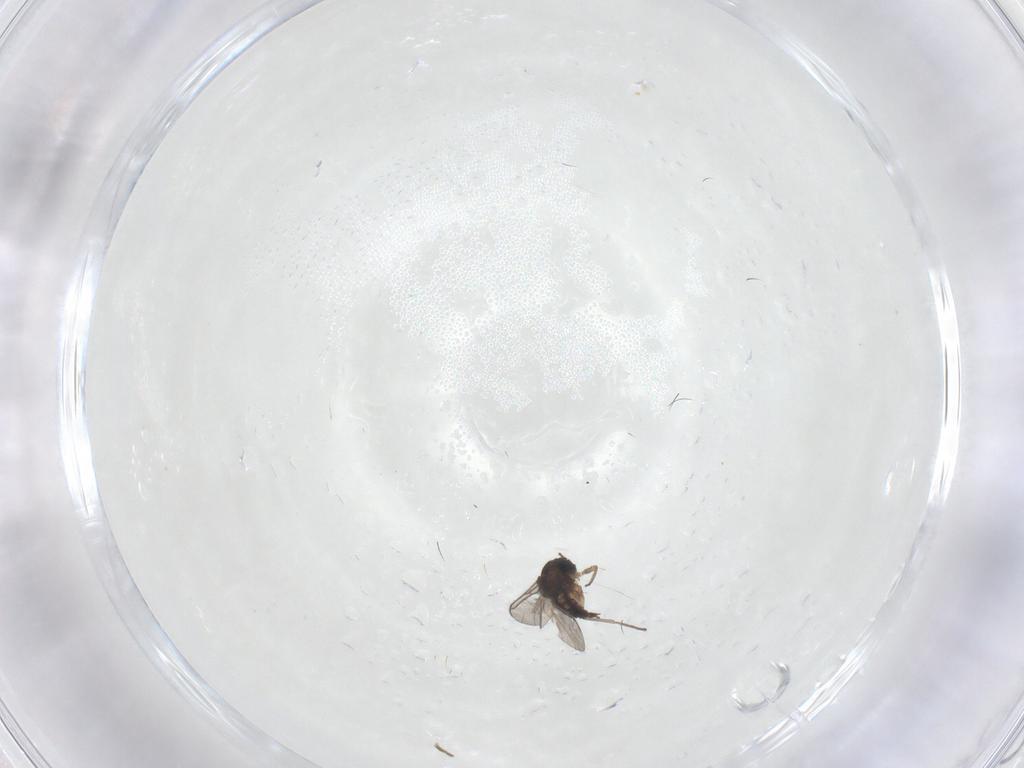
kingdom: Animalia
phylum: Arthropoda
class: Insecta
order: Diptera
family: Sciaridae
